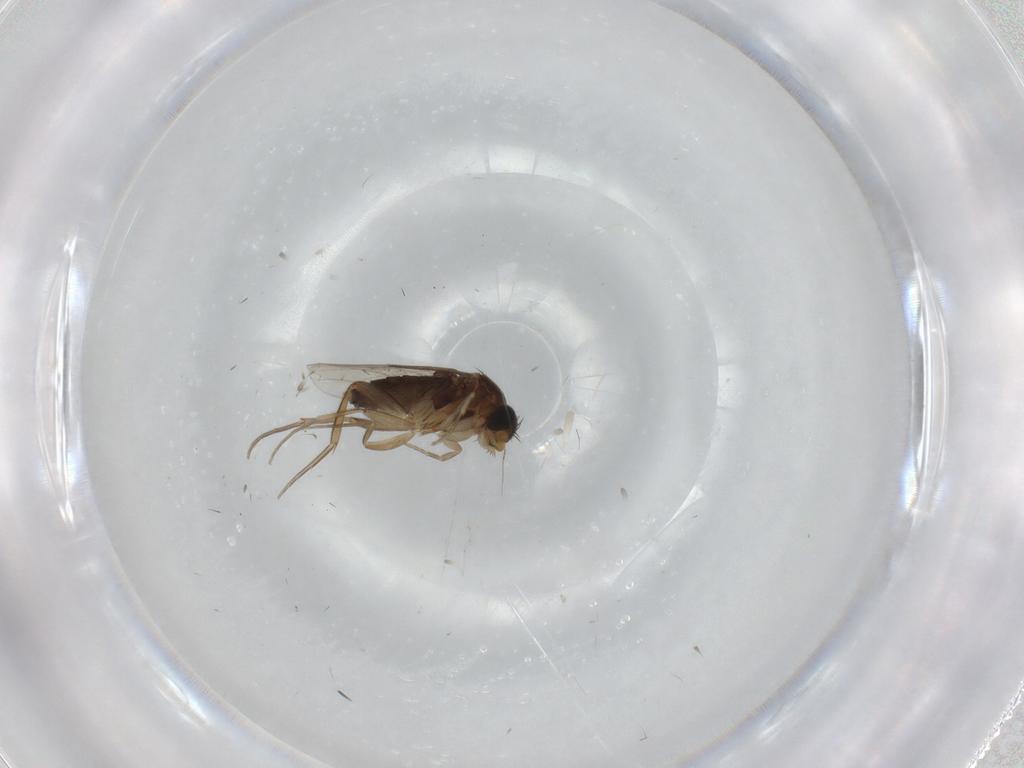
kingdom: Animalia
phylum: Arthropoda
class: Insecta
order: Diptera
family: Phoridae
